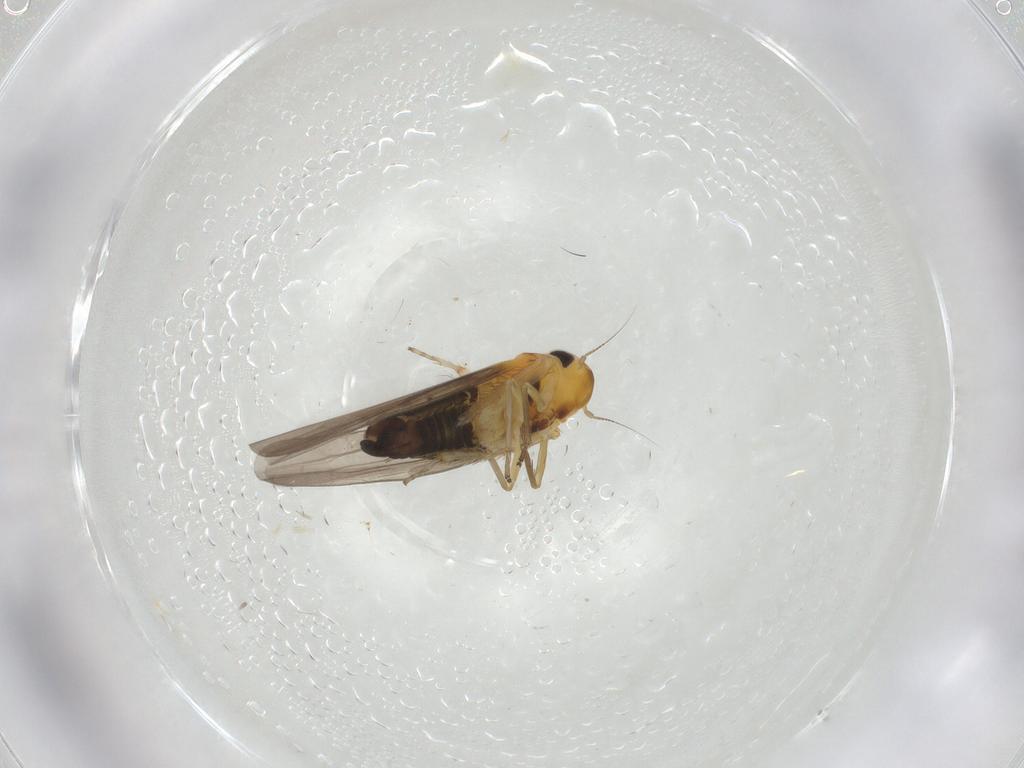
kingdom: Animalia
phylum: Arthropoda
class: Insecta
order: Hemiptera
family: Cicadellidae
